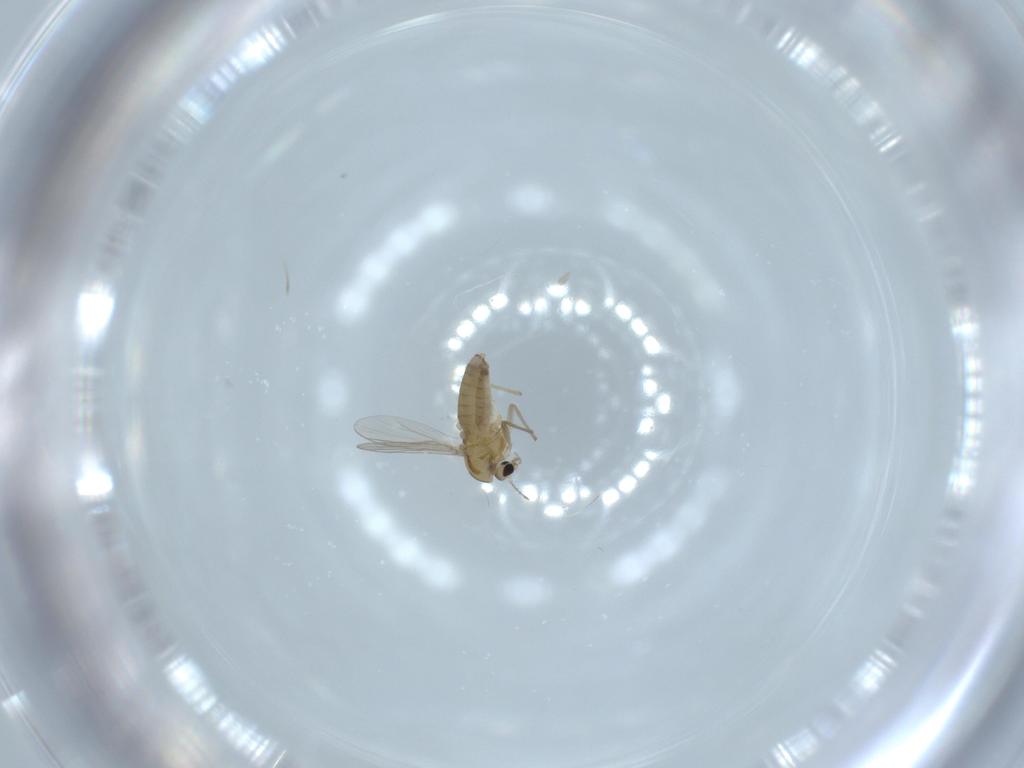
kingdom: Animalia
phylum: Arthropoda
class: Insecta
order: Diptera
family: Chironomidae
